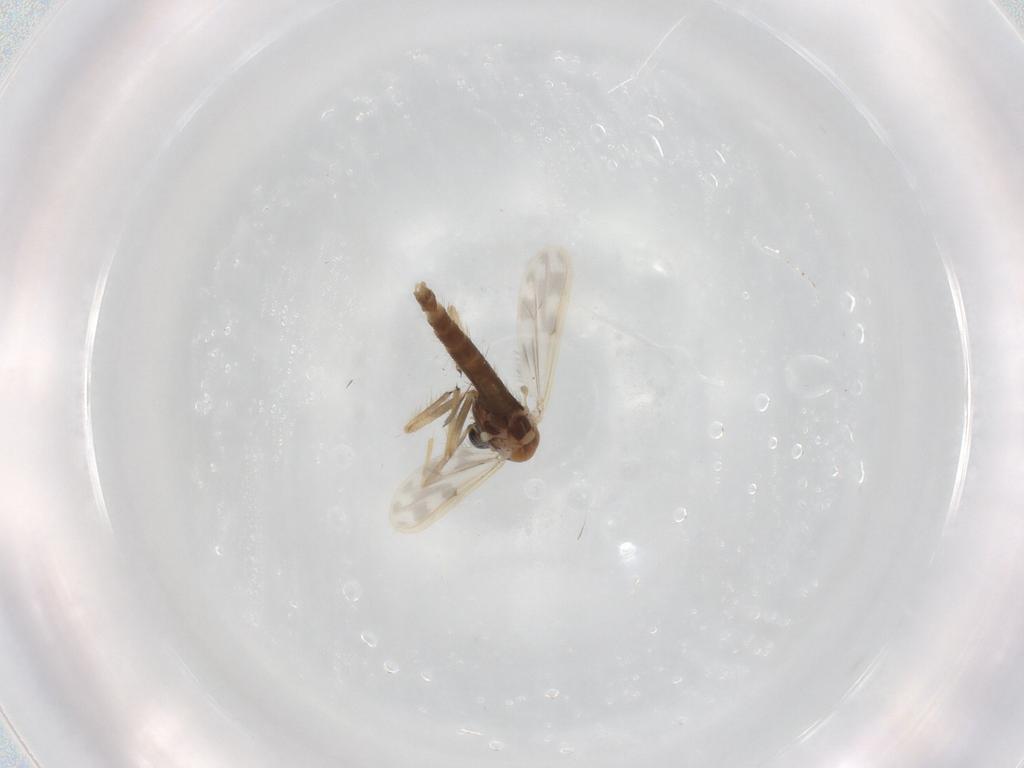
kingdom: Animalia
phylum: Arthropoda
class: Insecta
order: Diptera
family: Chironomidae
